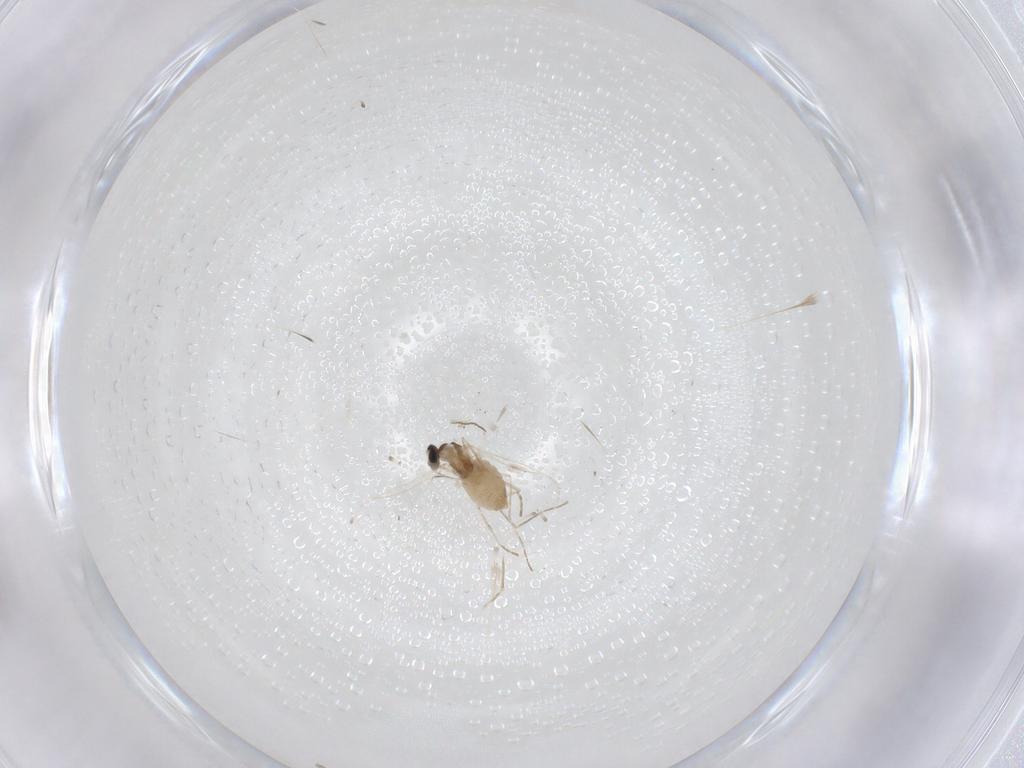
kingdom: Animalia
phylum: Arthropoda
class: Insecta
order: Diptera
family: Cecidomyiidae
